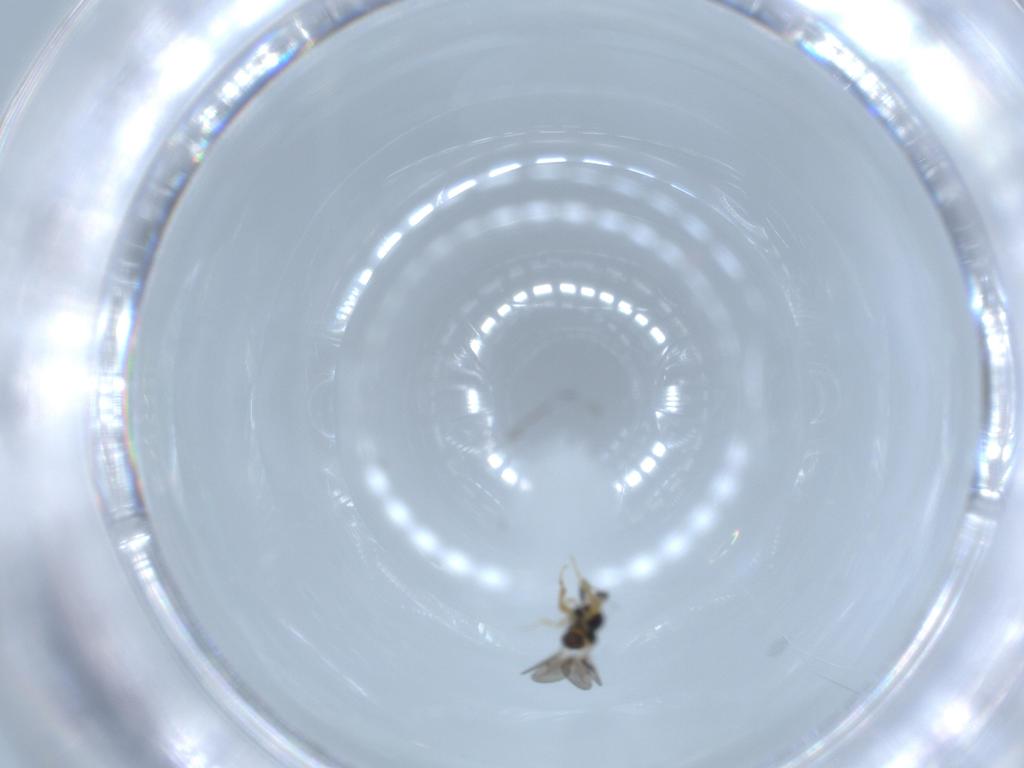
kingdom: Animalia
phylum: Arthropoda
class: Insecta
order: Hymenoptera
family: Ceraphronidae
